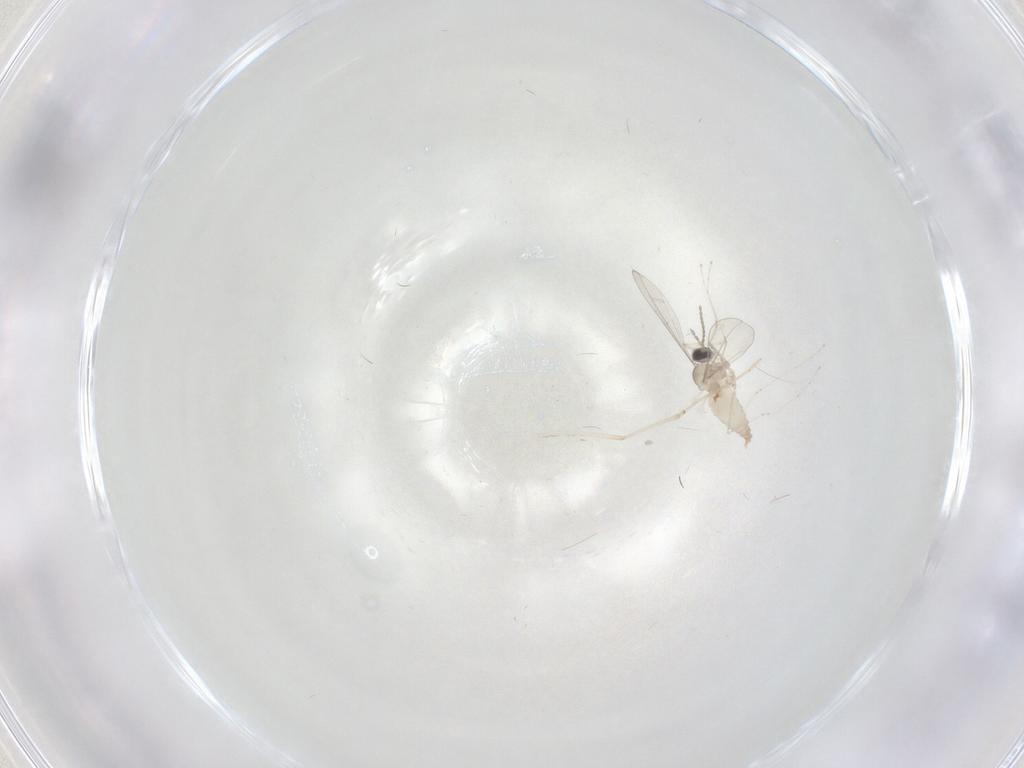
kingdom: Animalia
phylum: Arthropoda
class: Insecta
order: Diptera
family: Cecidomyiidae
